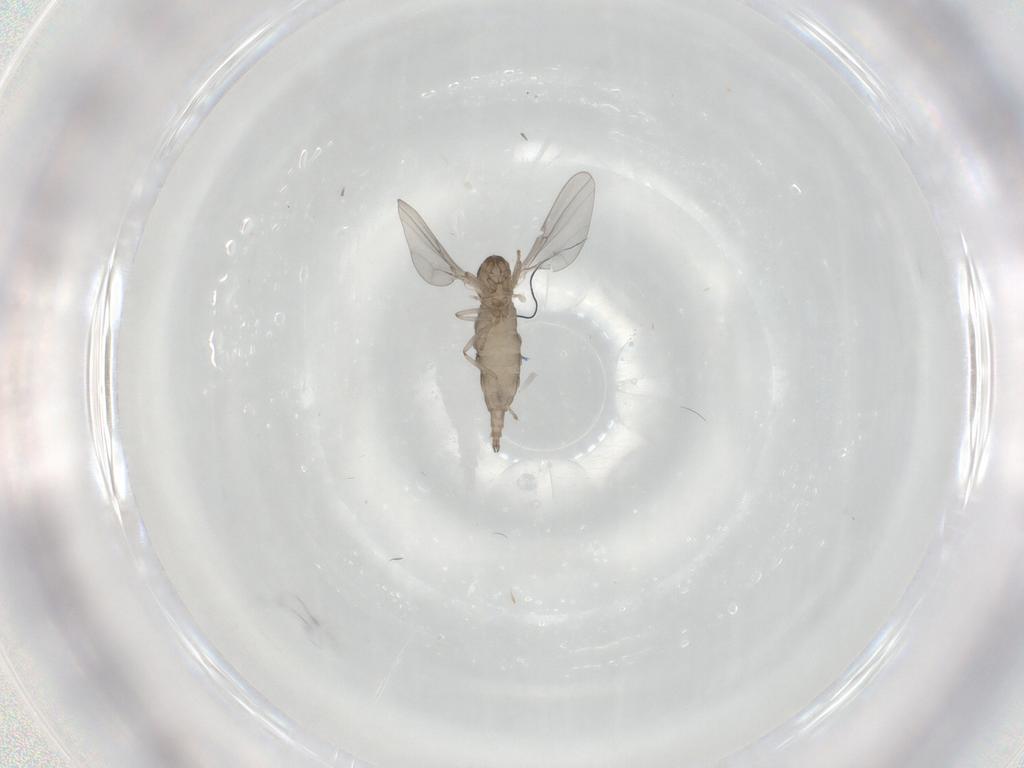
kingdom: Animalia
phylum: Arthropoda
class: Insecta
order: Diptera
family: Cecidomyiidae
